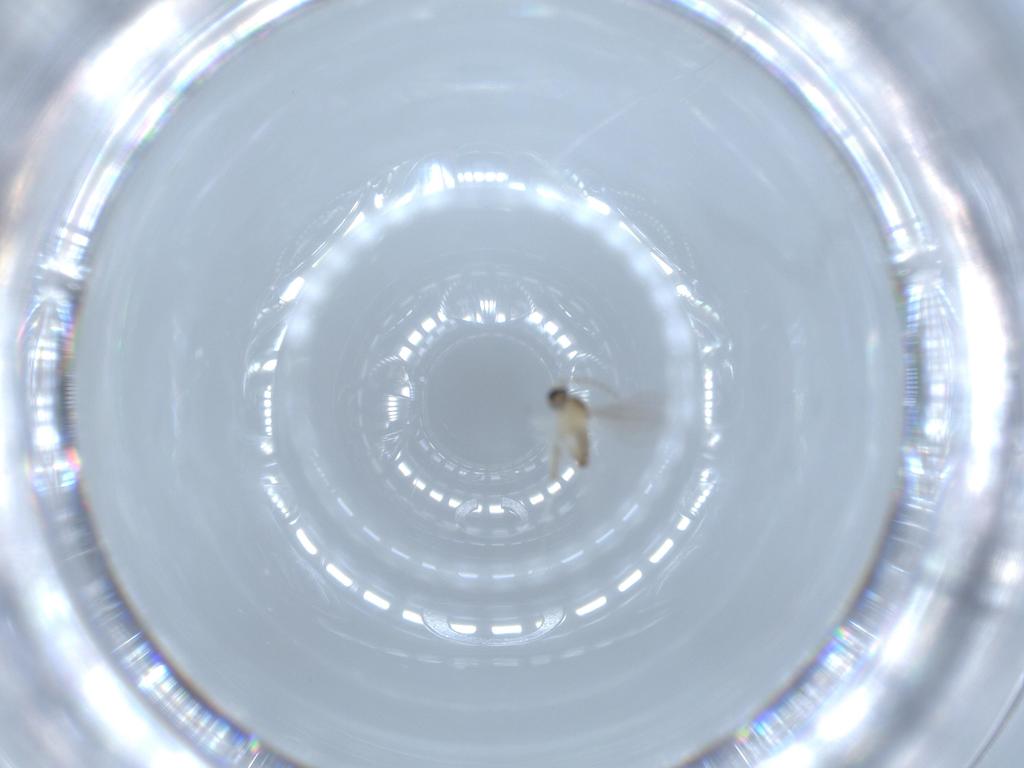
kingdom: Animalia
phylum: Arthropoda
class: Insecta
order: Diptera
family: Cecidomyiidae
